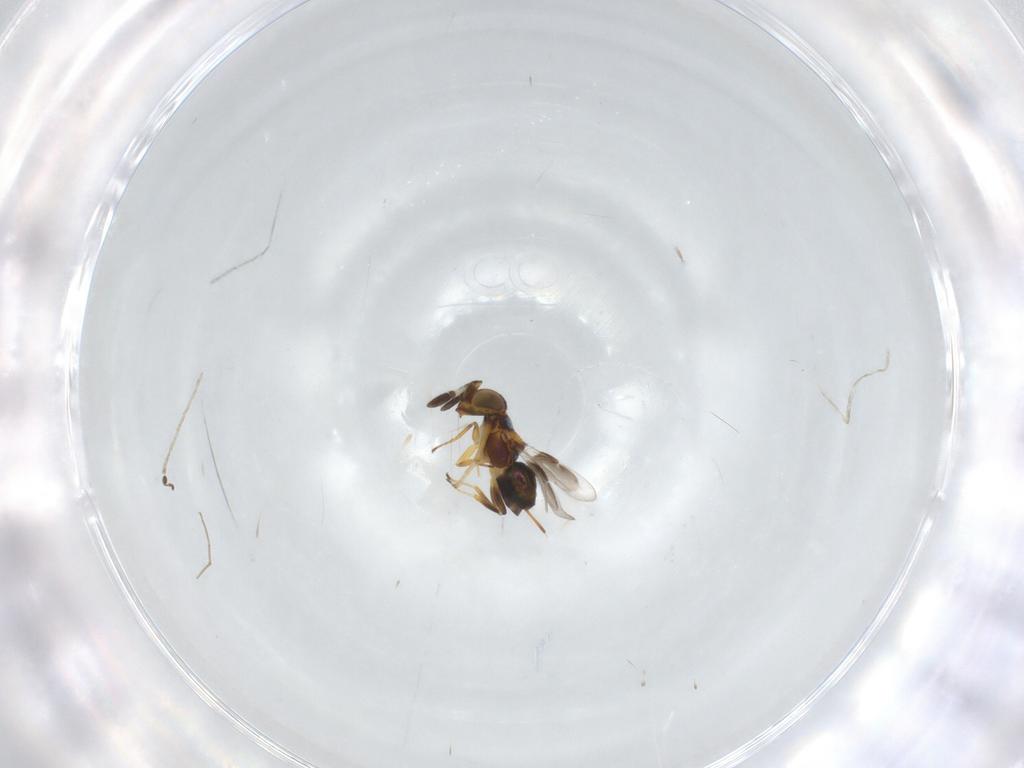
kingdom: Animalia
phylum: Arthropoda
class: Insecta
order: Hymenoptera
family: Encyrtidae
